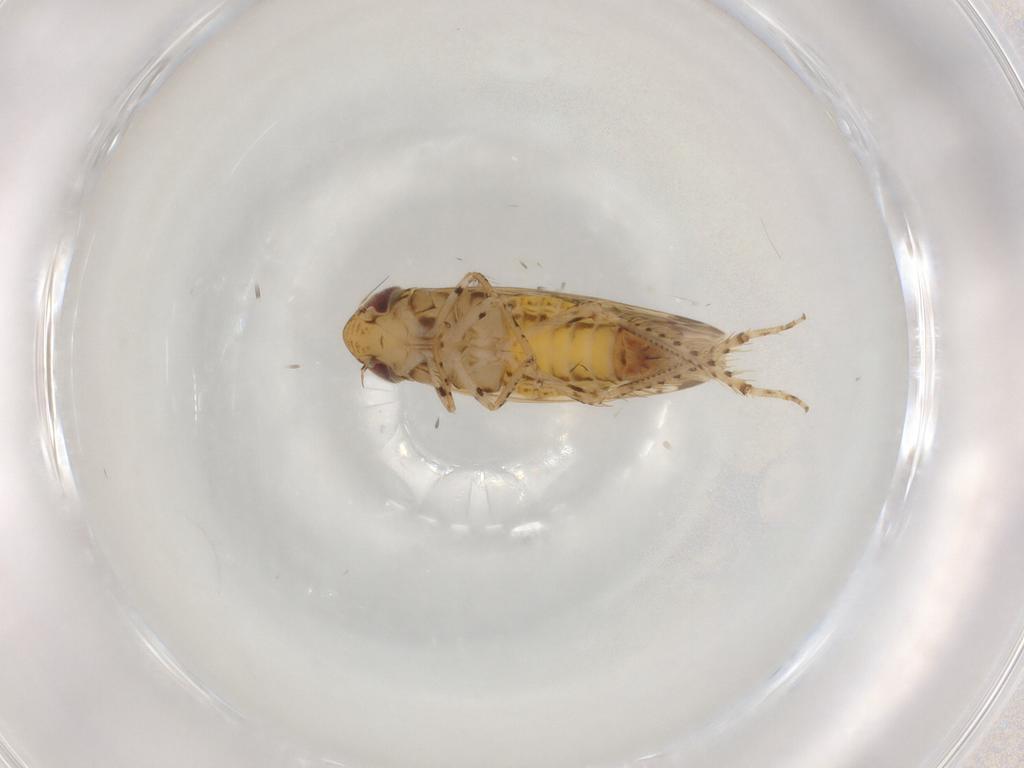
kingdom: Animalia
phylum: Arthropoda
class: Insecta
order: Hemiptera
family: Cicadellidae
